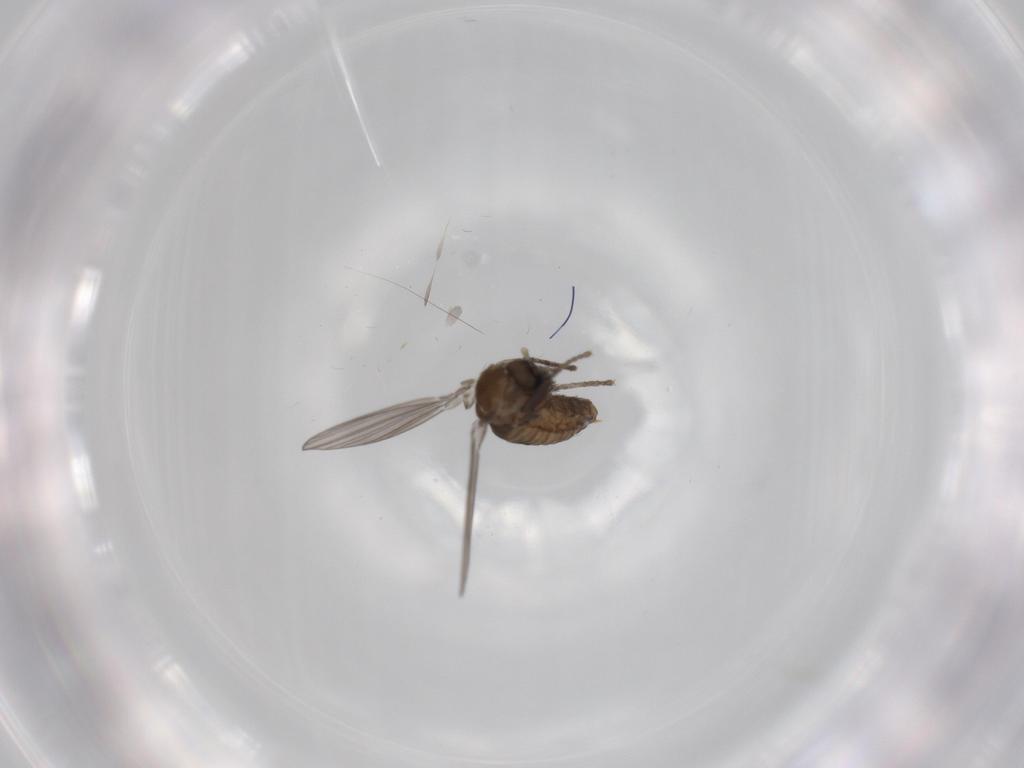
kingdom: Animalia
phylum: Arthropoda
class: Insecta
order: Diptera
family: Psychodidae
